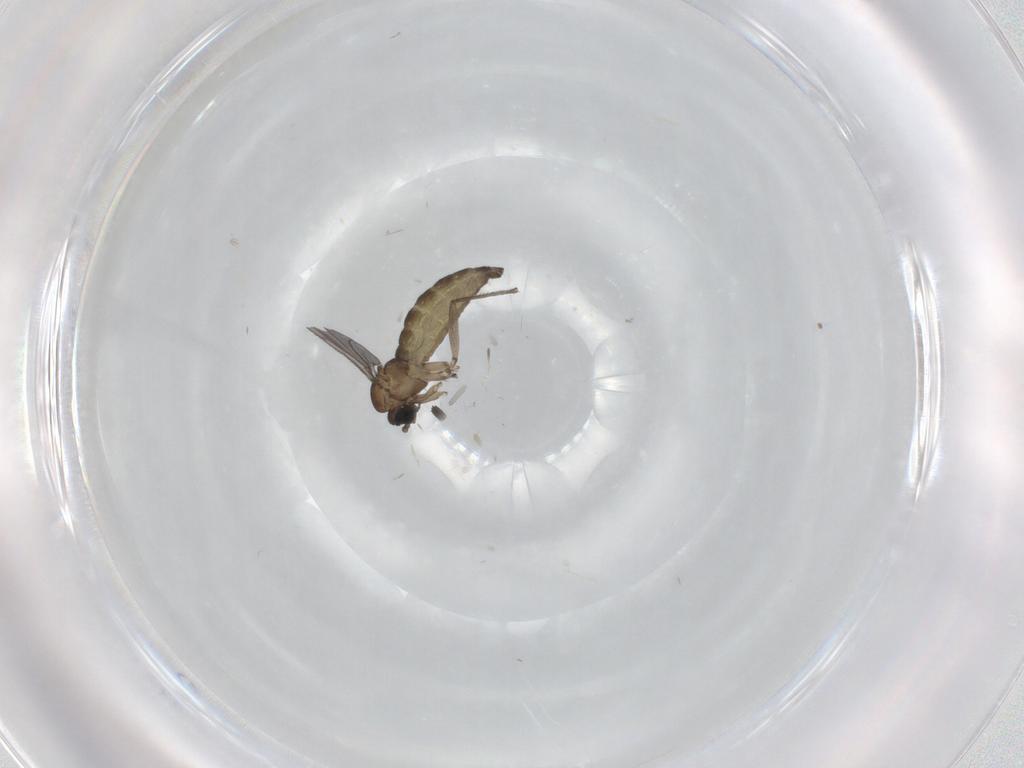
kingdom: Animalia
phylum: Arthropoda
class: Insecta
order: Diptera
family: Sciaridae
